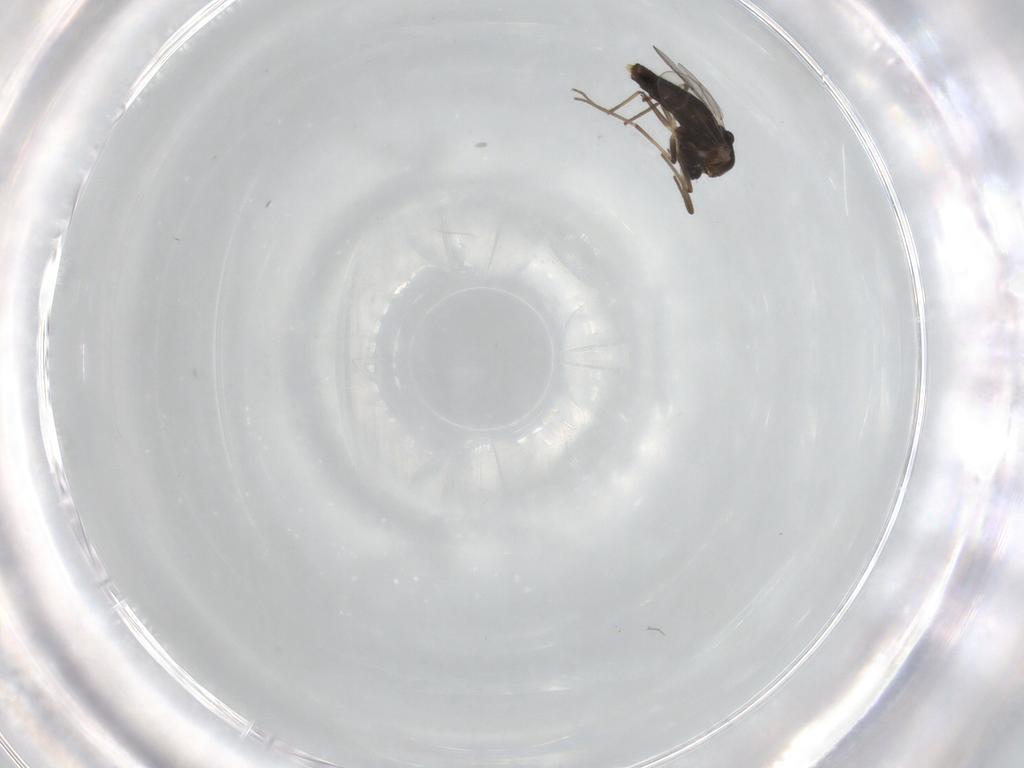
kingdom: Animalia
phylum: Arthropoda
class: Insecta
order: Diptera
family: Chironomidae
